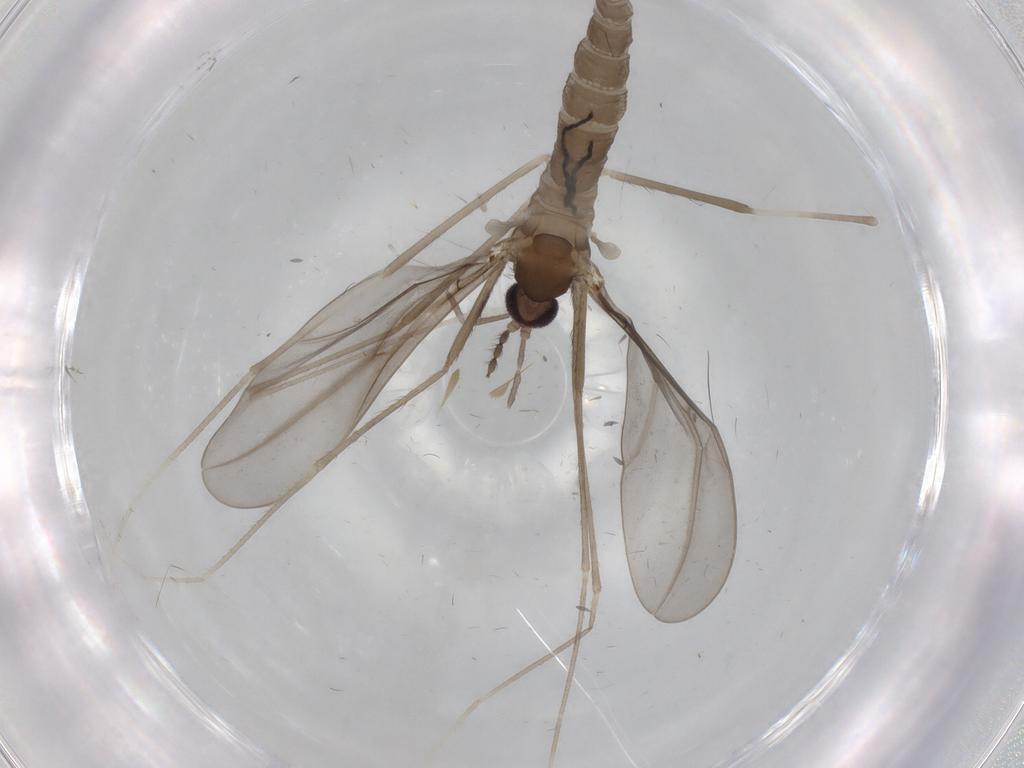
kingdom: Animalia
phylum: Arthropoda
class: Insecta
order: Diptera
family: Cecidomyiidae
